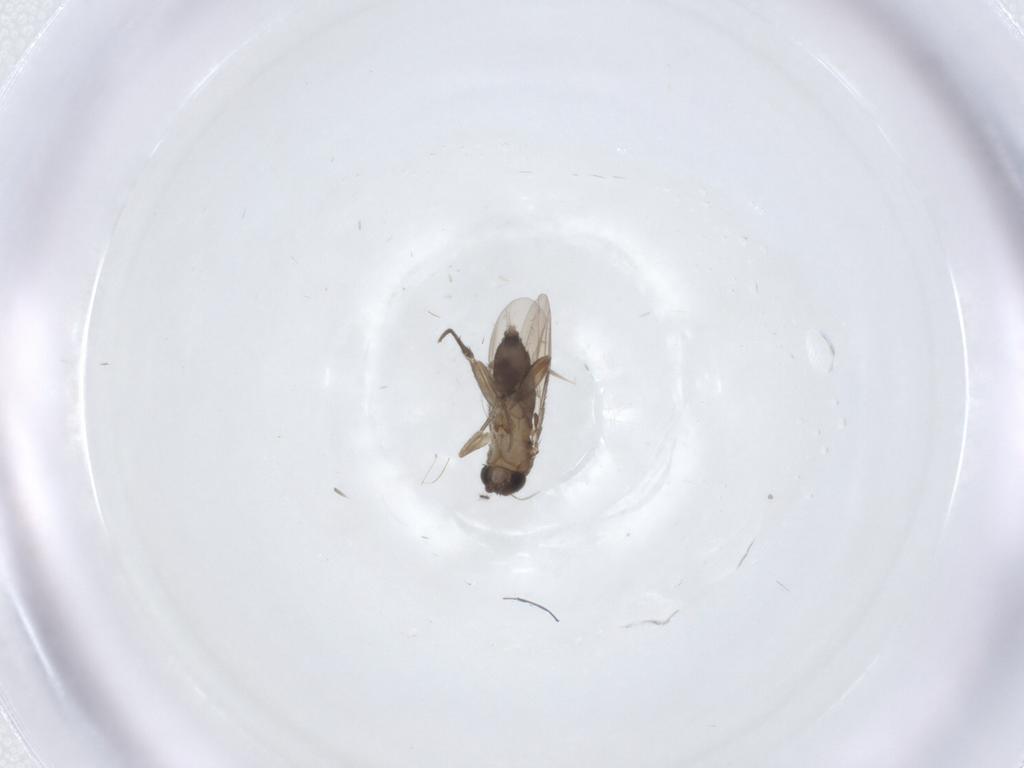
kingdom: Animalia
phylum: Arthropoda
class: Insecta
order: Diptera
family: Phoridae
